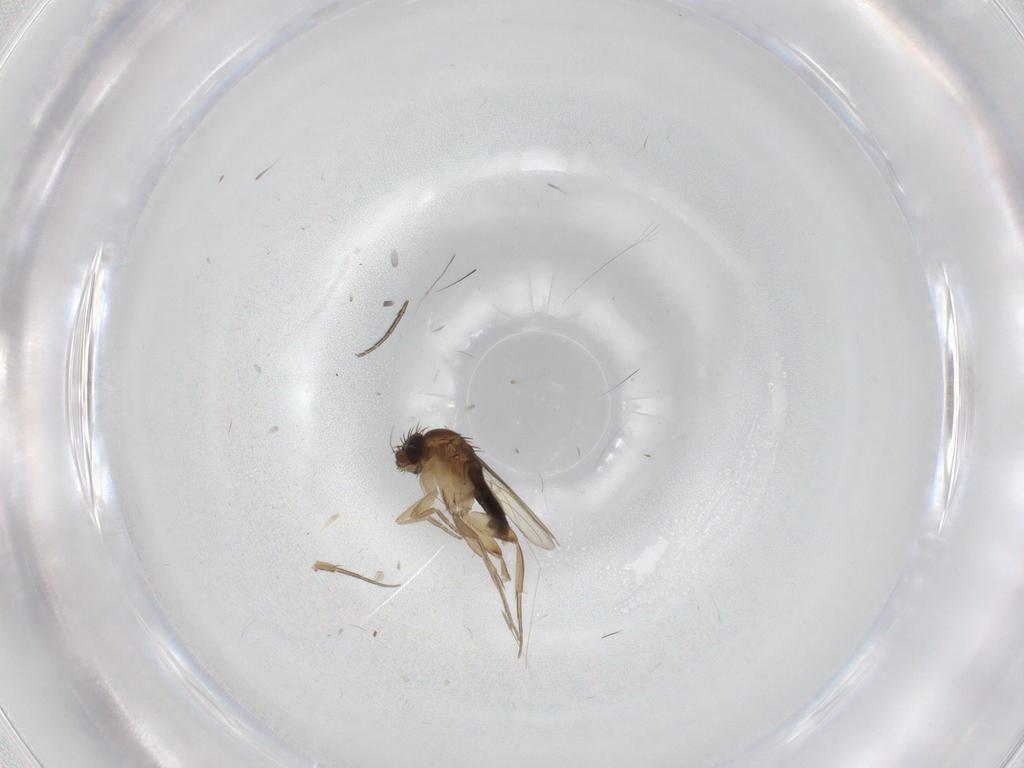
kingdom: Animalia
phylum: Arthropoda
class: Insecta
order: Diptera
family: Phoridae
